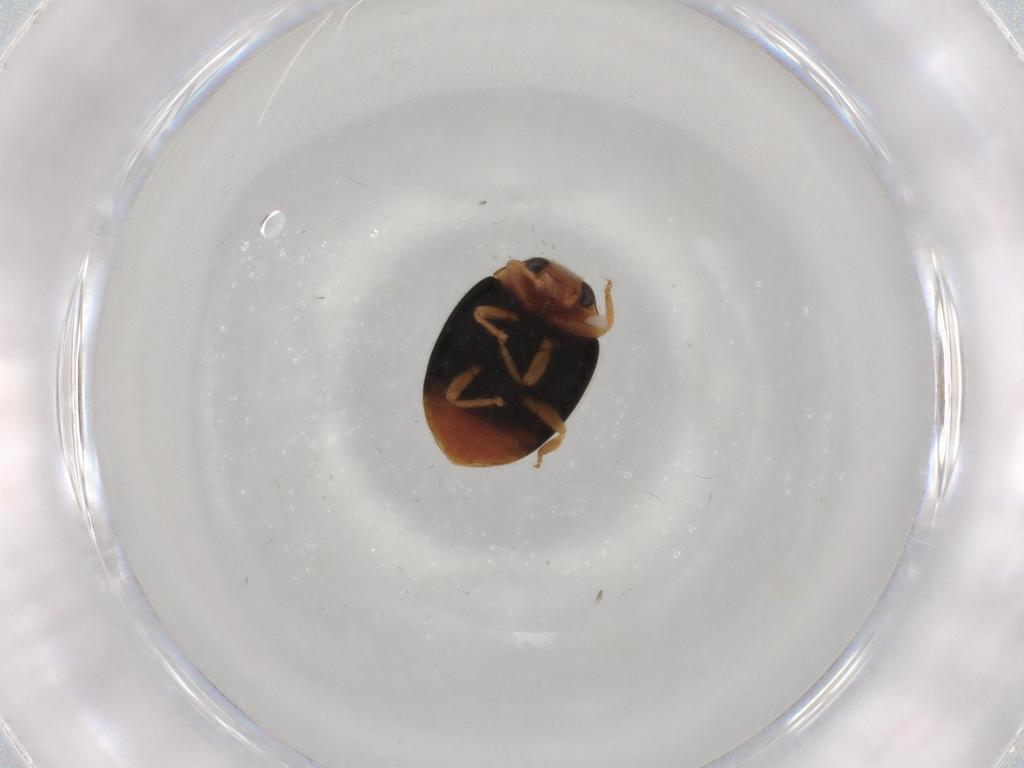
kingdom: Animalia
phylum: Arthropoda
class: Insecta
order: Coleoptera
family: Coccinellidae
